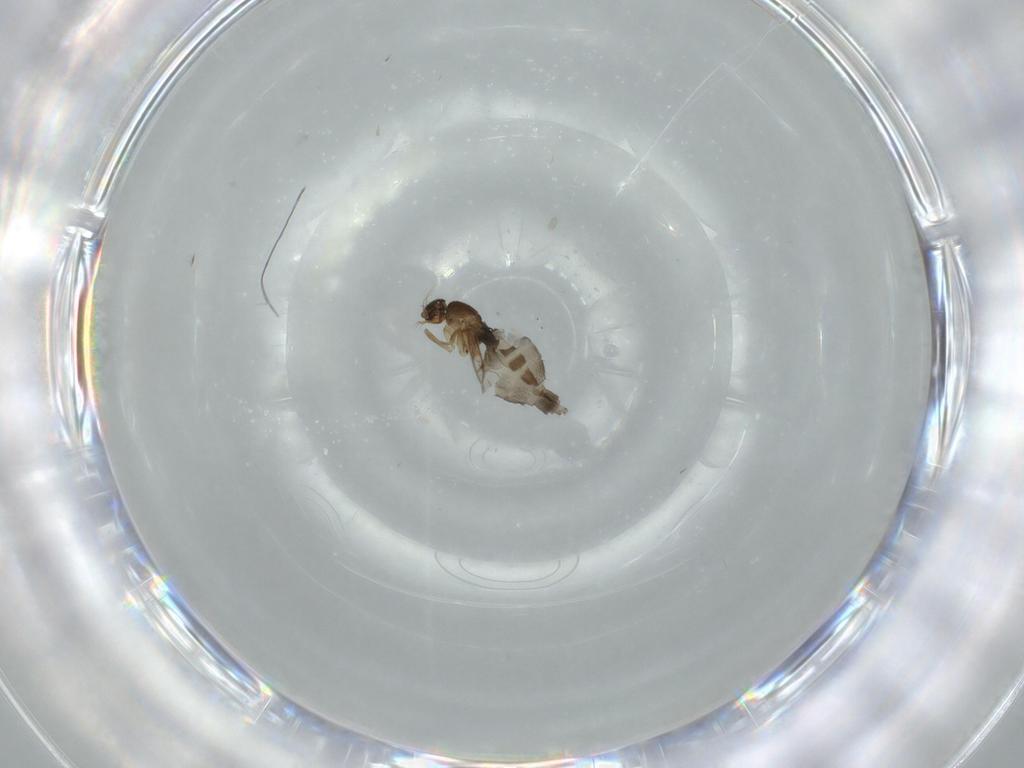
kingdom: Animalia
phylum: Arthropoda
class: Insecta
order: Diptera
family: Phoridae
